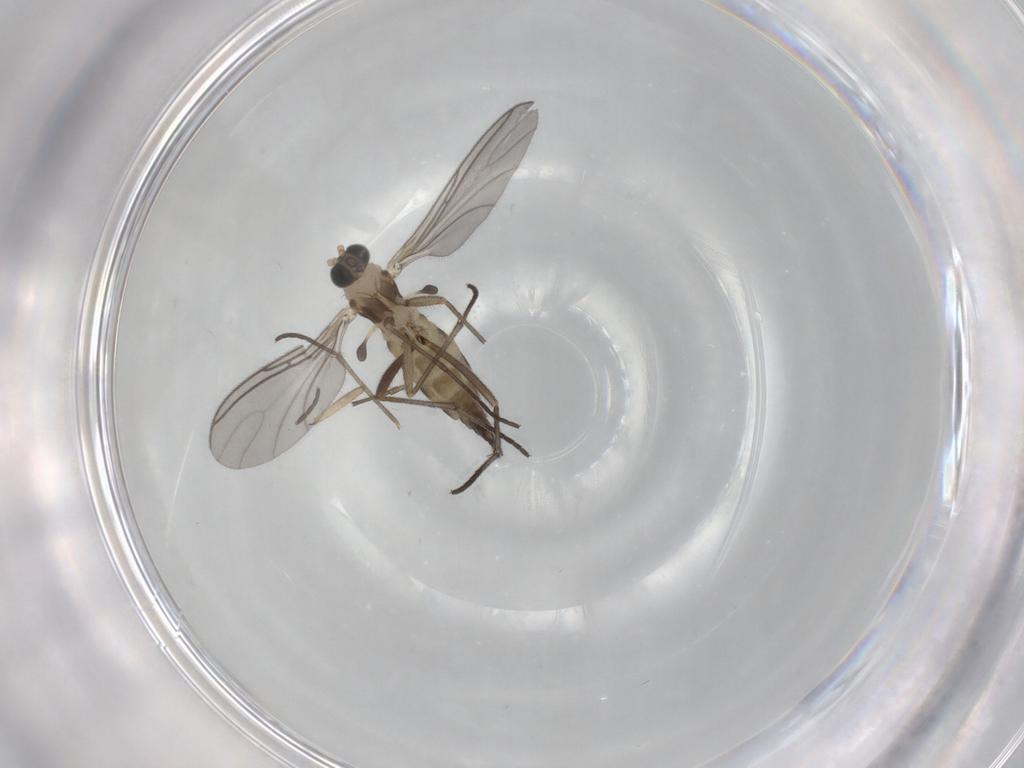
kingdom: Animalia
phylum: Arthropoda
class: Insecta
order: Diptera
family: Sciaridae
